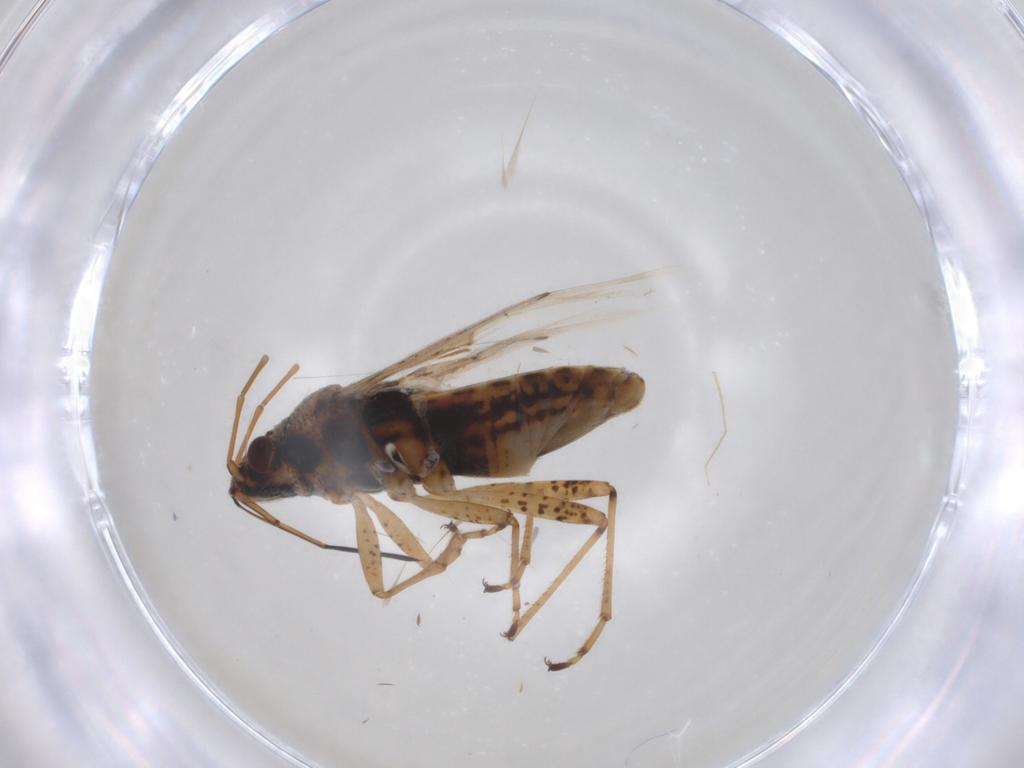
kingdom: Animalia
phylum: Arthropoda
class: Insecta
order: Hemiptera
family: Lygaeidae
